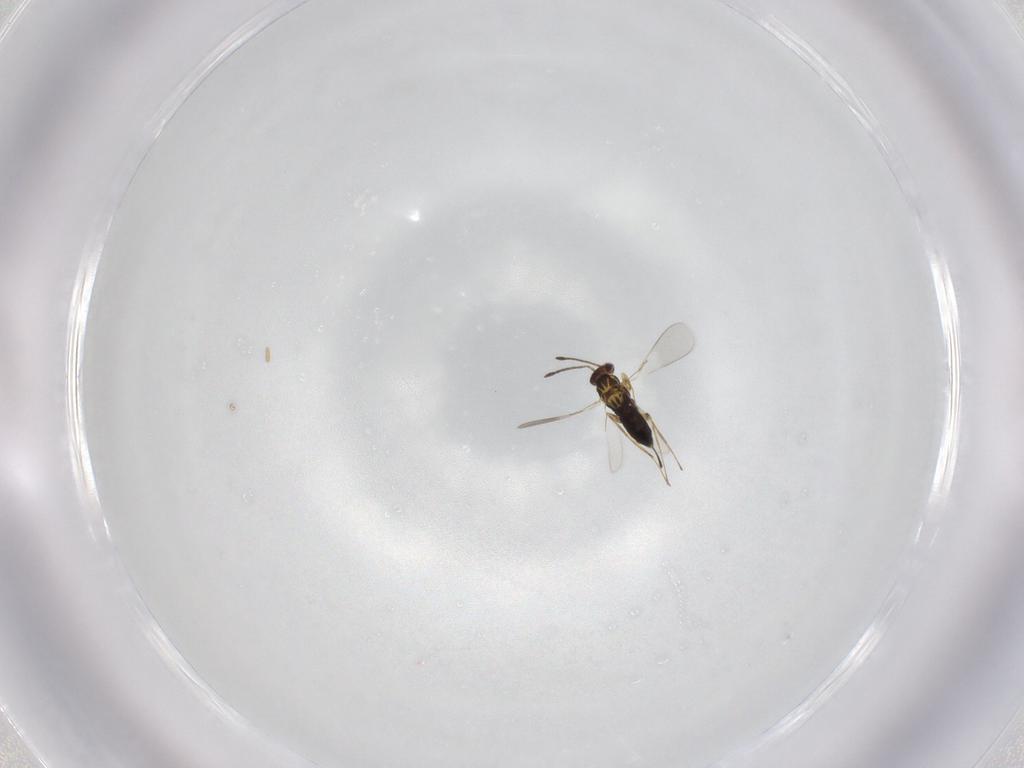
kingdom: Animalia
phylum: Arthropoda
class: Insecta
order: Hymenoptera
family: Mymaridae
